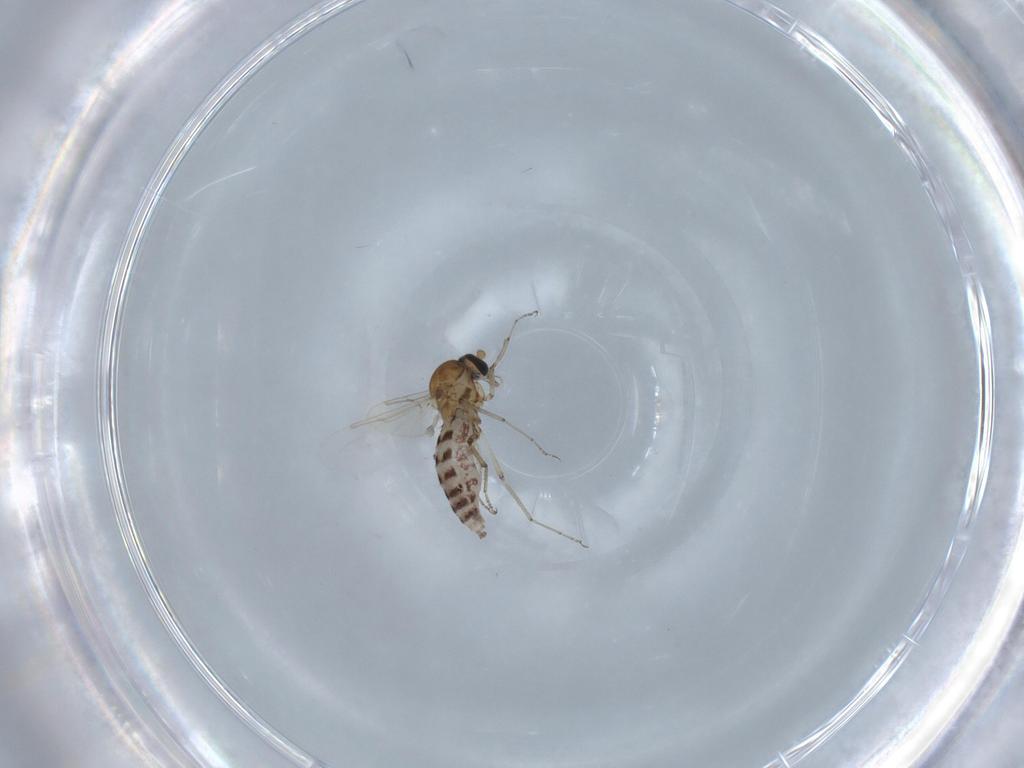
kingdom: Animalia
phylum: Arthropoda
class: Insecta
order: Diptera
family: Ceratopogonidae
